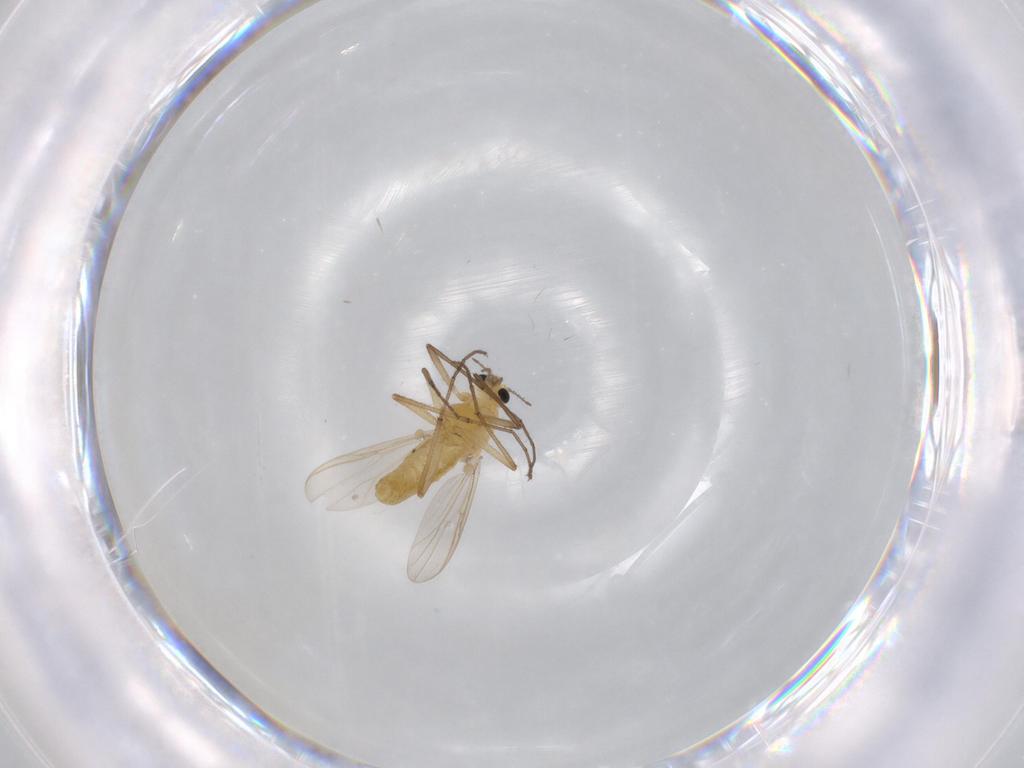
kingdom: Animalia
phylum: Arthropoda
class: Insecta
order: Diptera
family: Chironomidae
